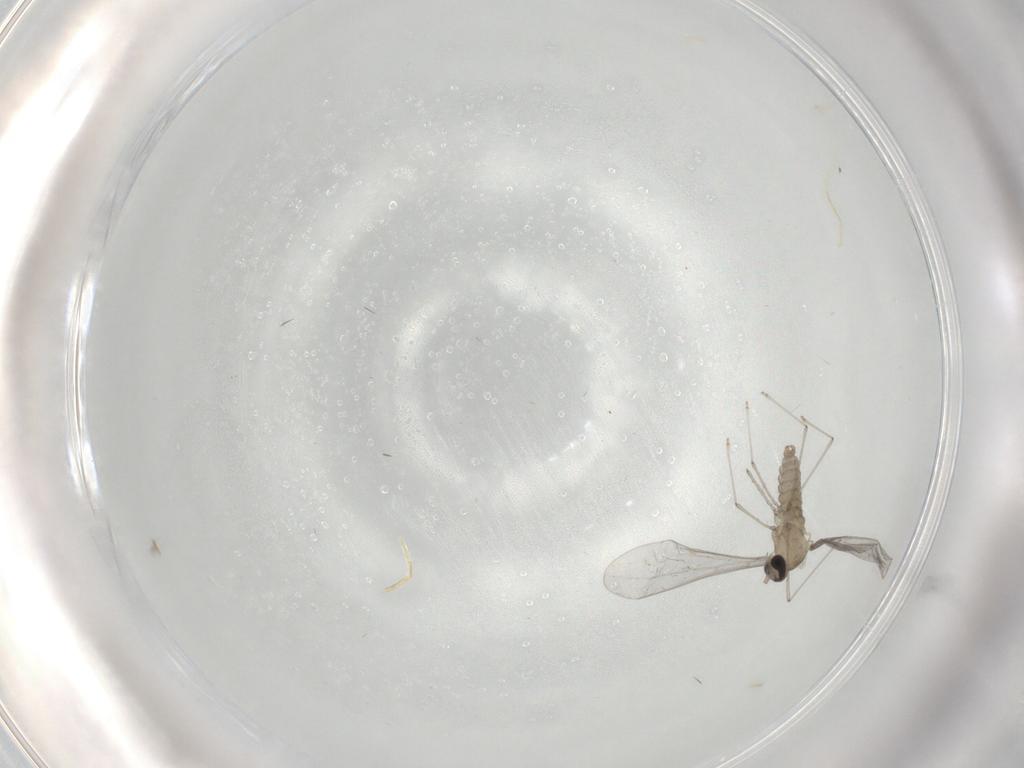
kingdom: Animalia
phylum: Arthropoda
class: Insecta
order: Diptera
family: Cecidomyiidae
